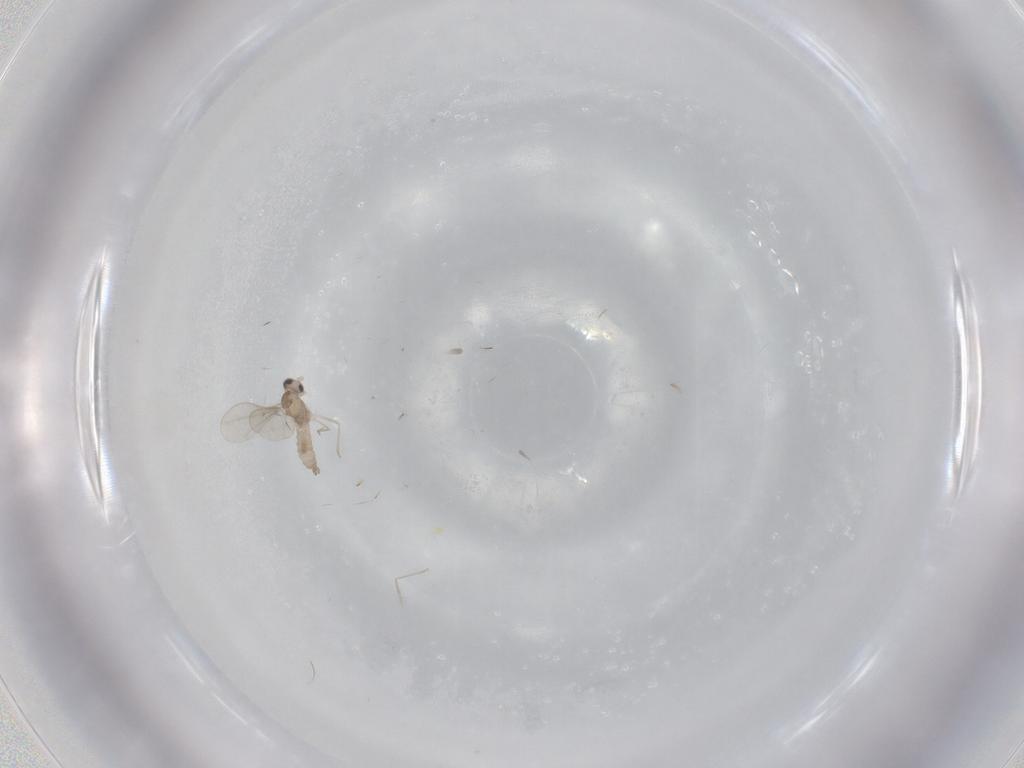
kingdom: Animalia
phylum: Arthropoda
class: Insecta
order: Diptera
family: Cecidomyiidae
